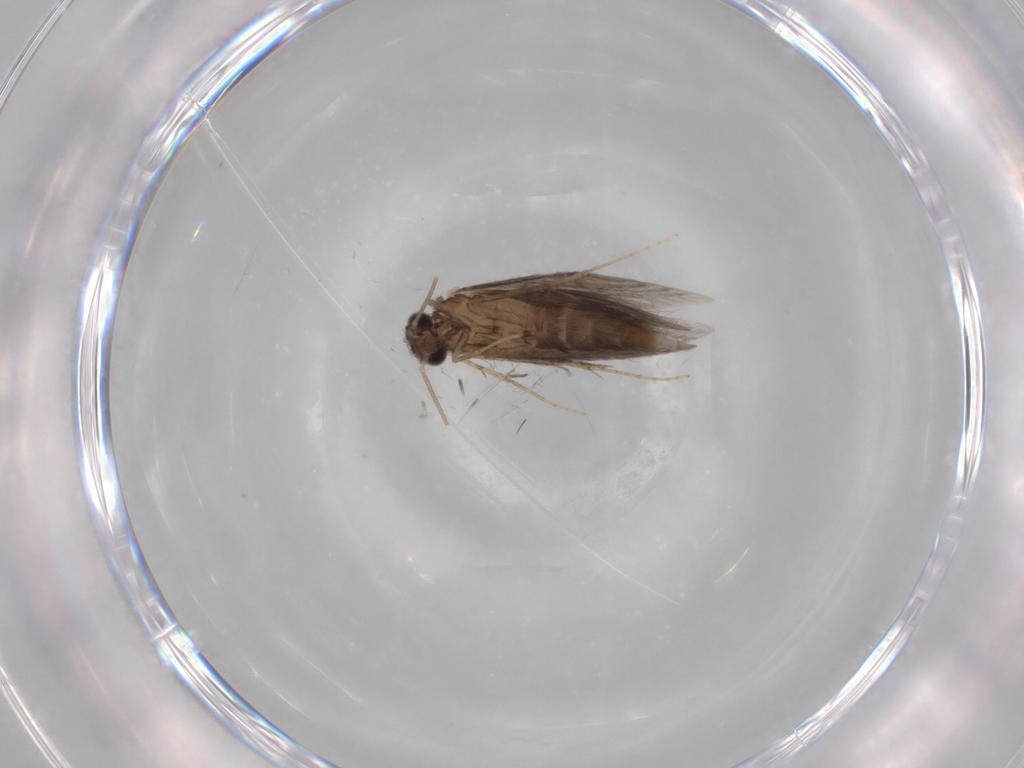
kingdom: Animalia
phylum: Arthropoda
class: Insecta
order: Trichoptera
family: Hydroptilidae
